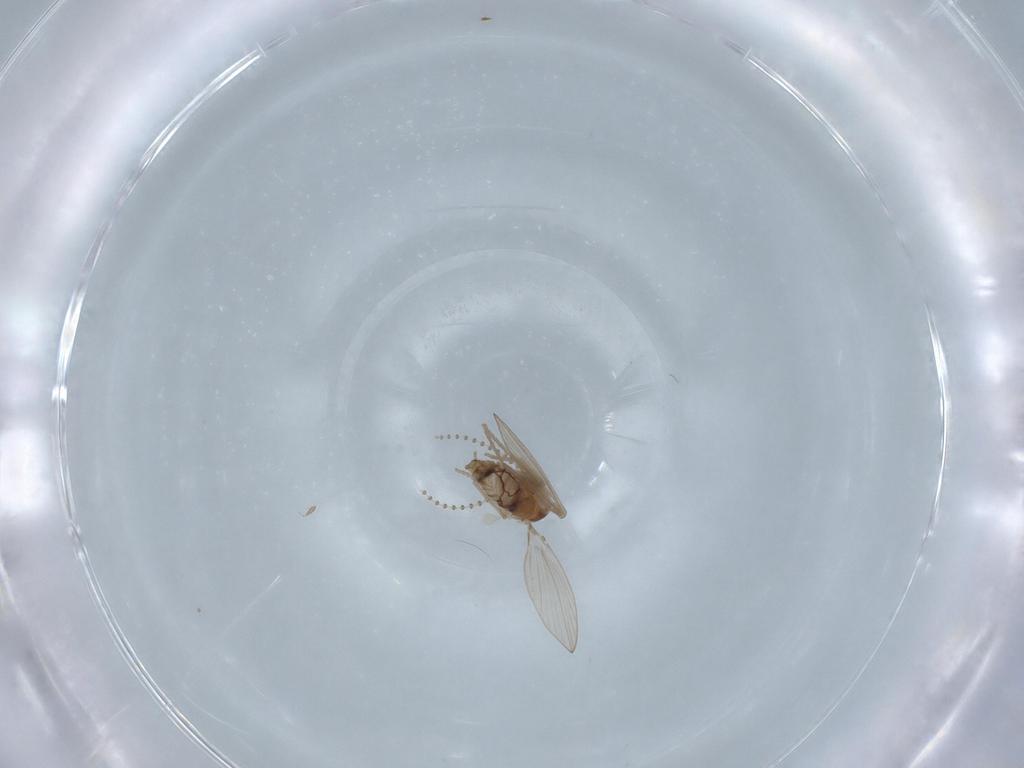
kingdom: Animalia
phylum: Arthropoda
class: Insecta
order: Diptera
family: Ceratopogonidae
